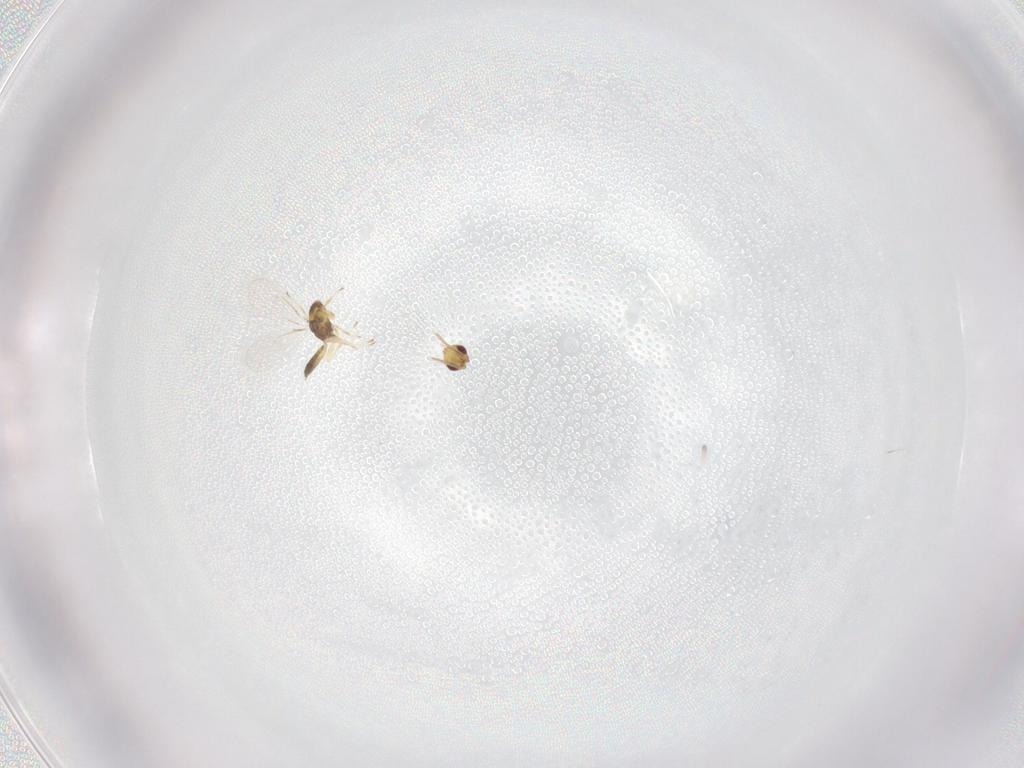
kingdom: Animalia
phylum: Arthropoda
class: Insecta
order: Hymenoptera
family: Eulophidae
